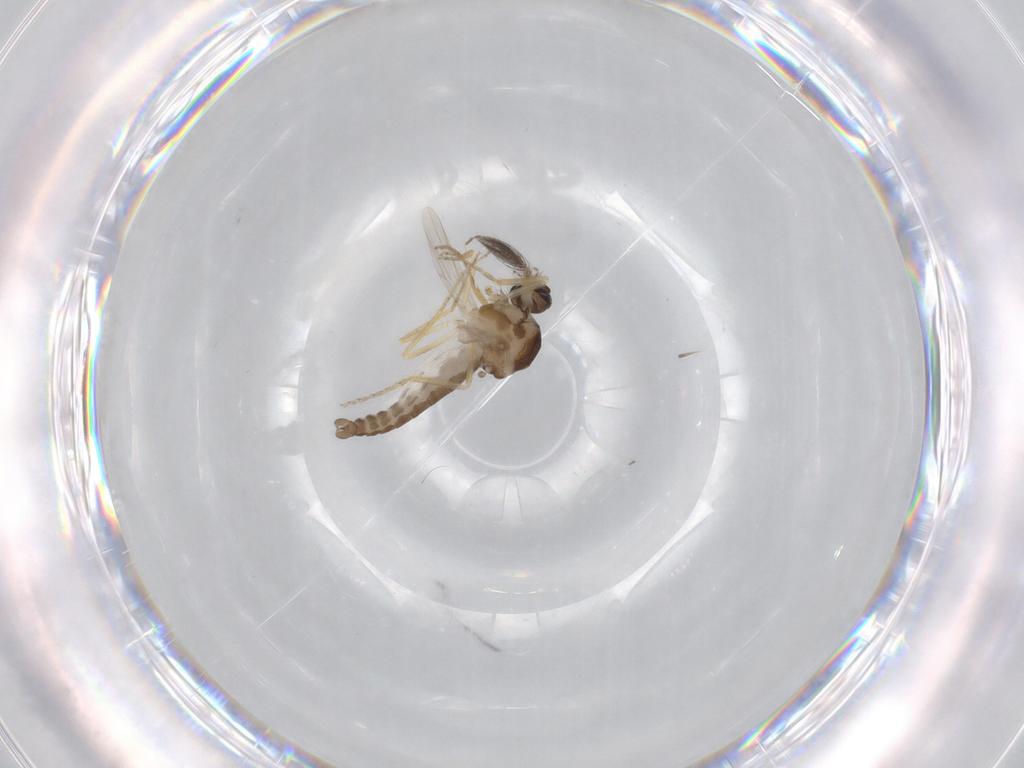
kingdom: Animalia
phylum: Arthropoda
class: Insecta
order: Diptera
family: Ceratopogonidae
